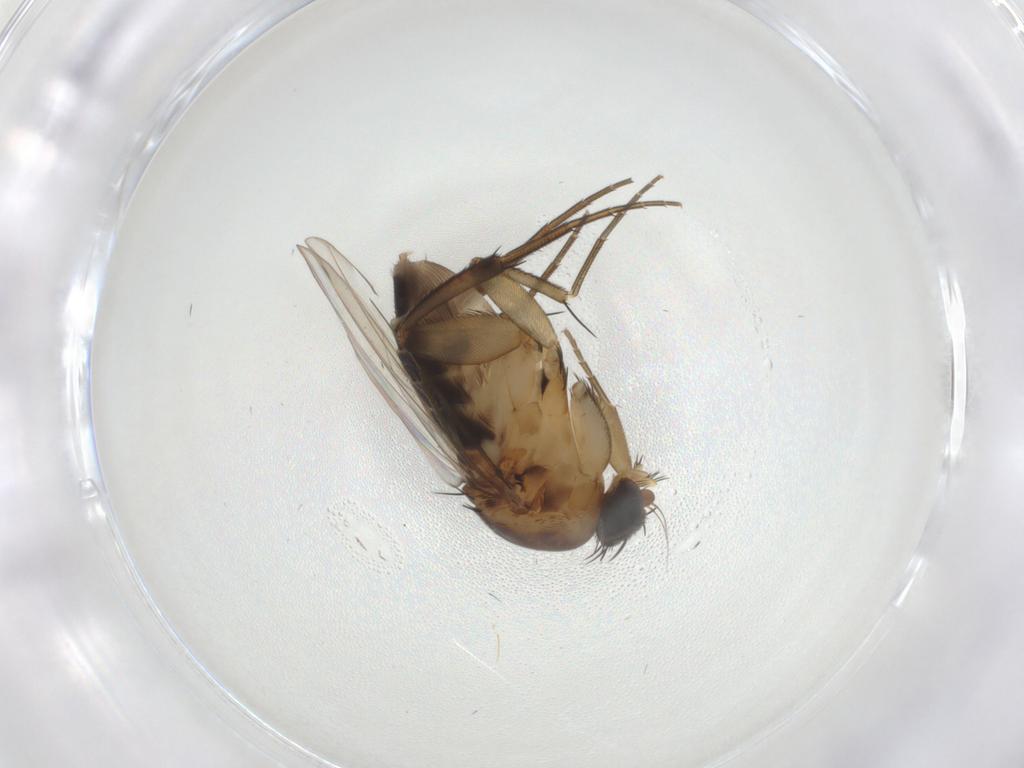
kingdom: Animalia
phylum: Arthropoda
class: Insecta
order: Diptera
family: Phoridae
